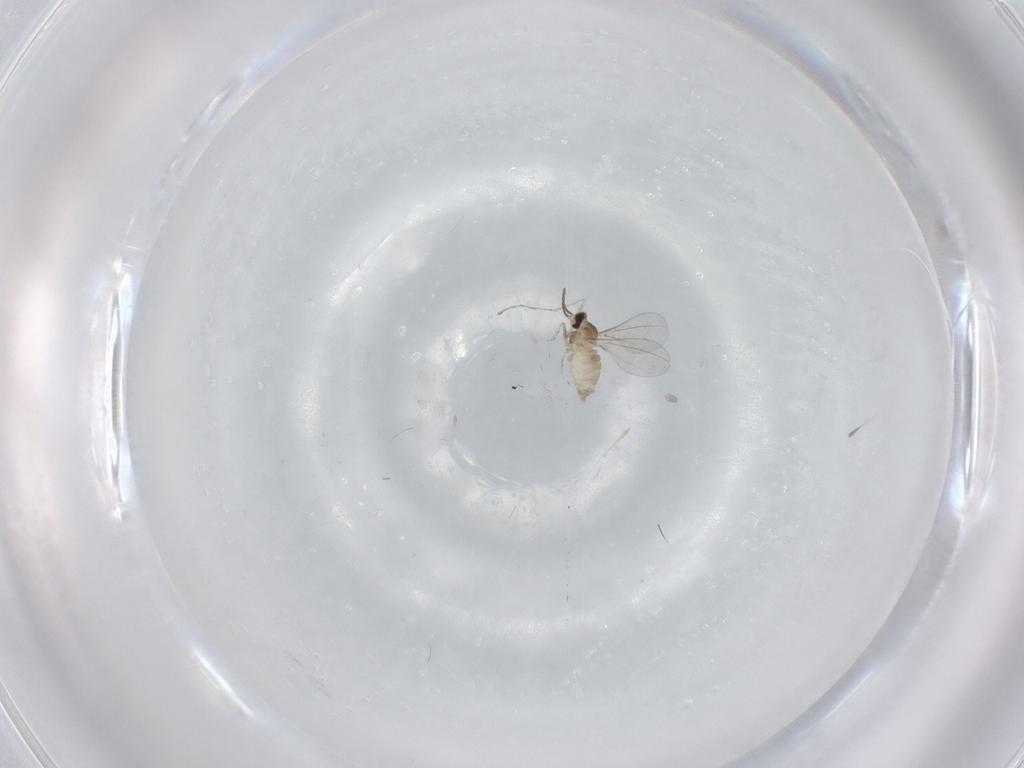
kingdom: Animalia
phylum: Arthropoda
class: Insecta
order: Diptera
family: Cecidomyiidae
